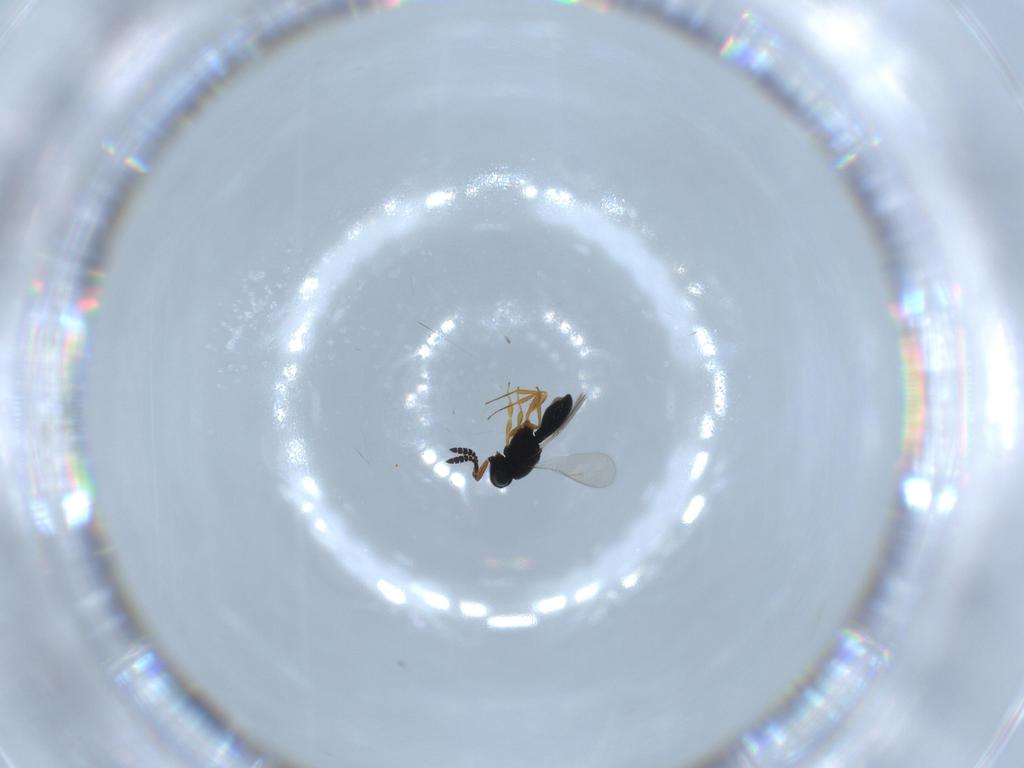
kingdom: Animalia
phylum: Arthropoda
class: Insecta
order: Hymenoptera
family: Scelionidae
